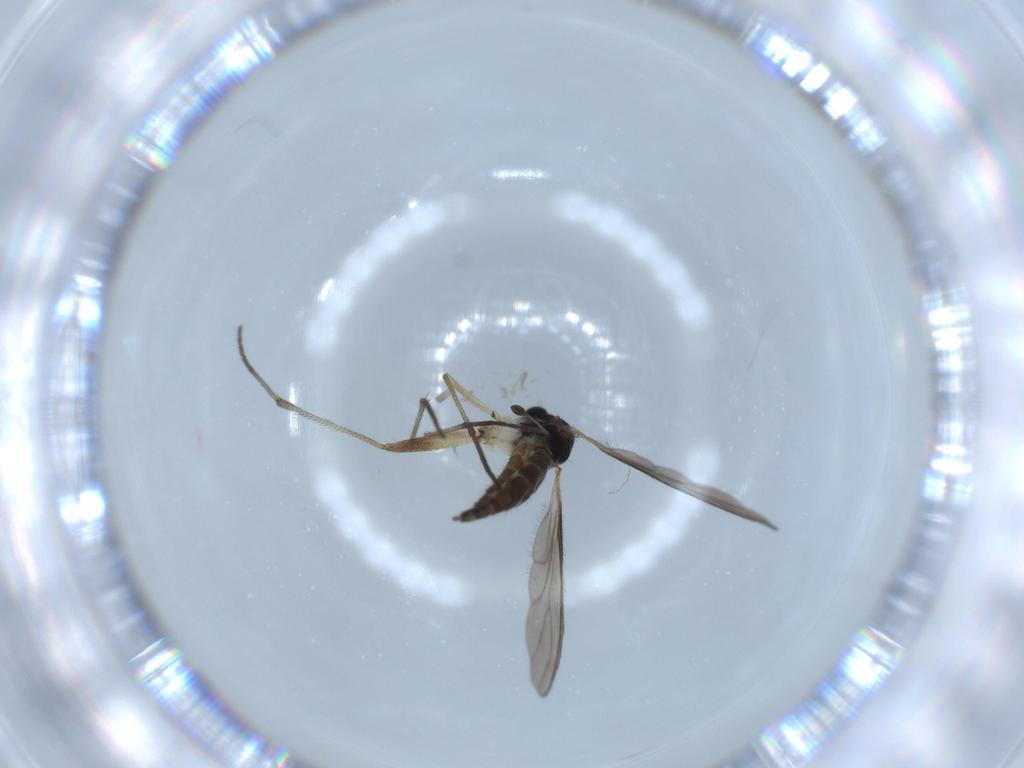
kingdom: Animalia
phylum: Arthropoda
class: Insecta
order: Diptera
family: Sciaridae
